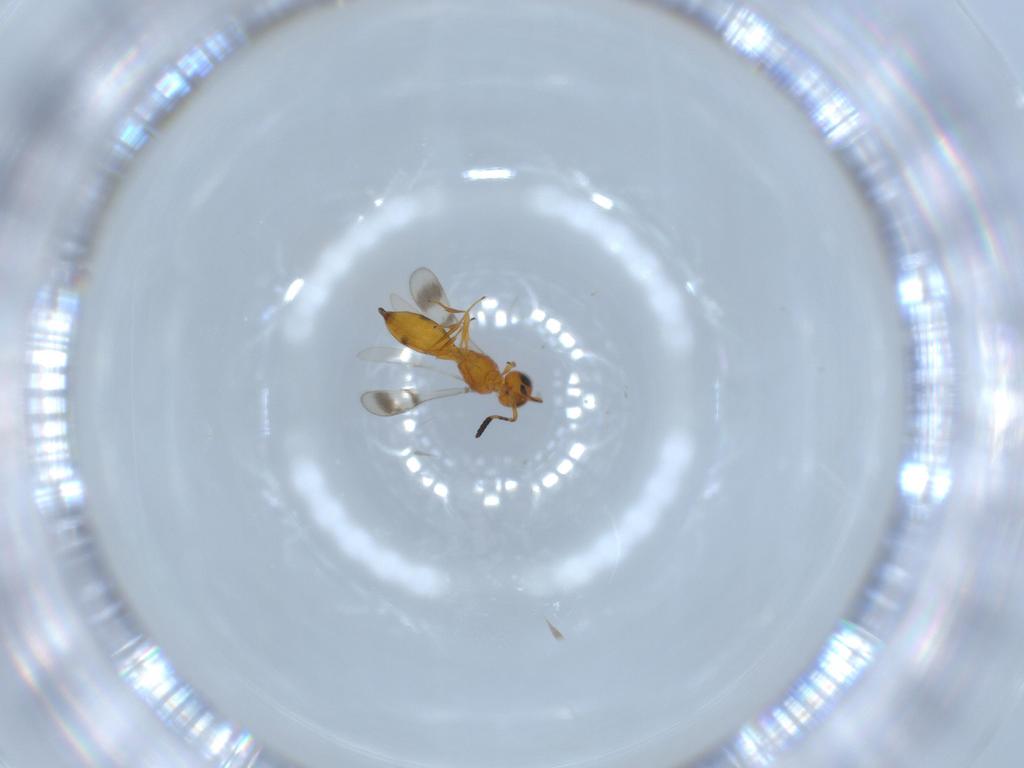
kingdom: Animalia
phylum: Arthropoda
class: Insecta
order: Hymenoptera
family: Scelionidae
